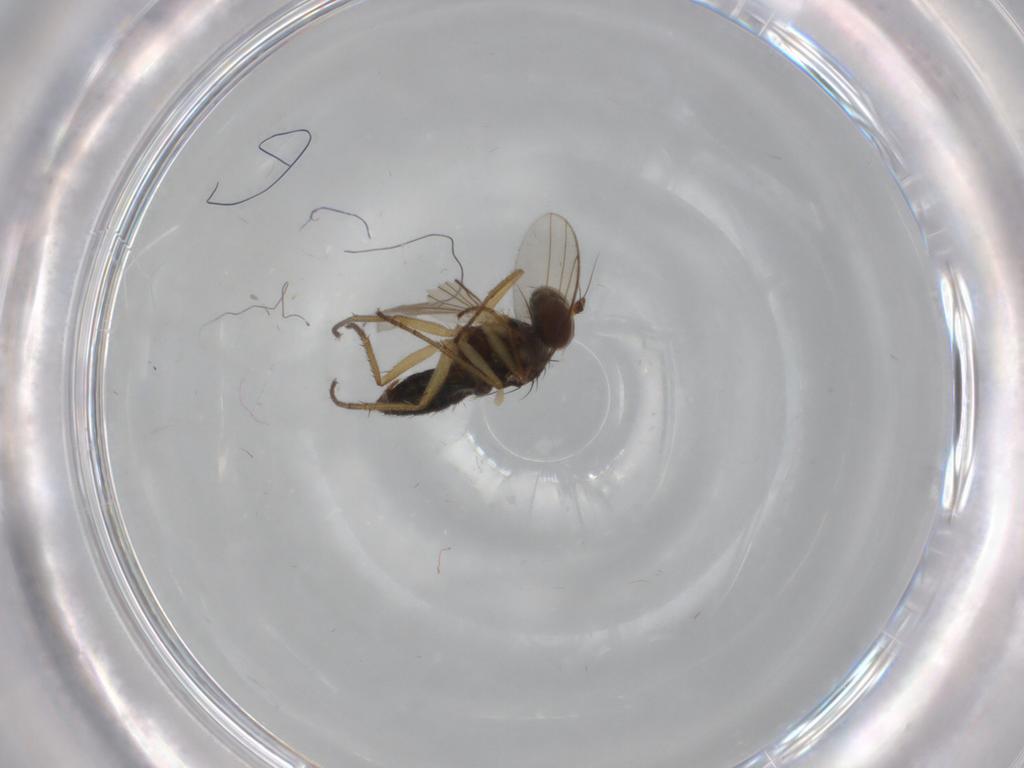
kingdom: Animalia
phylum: Arthropoda
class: Insecta
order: Diptera
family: Dolichopodidae
